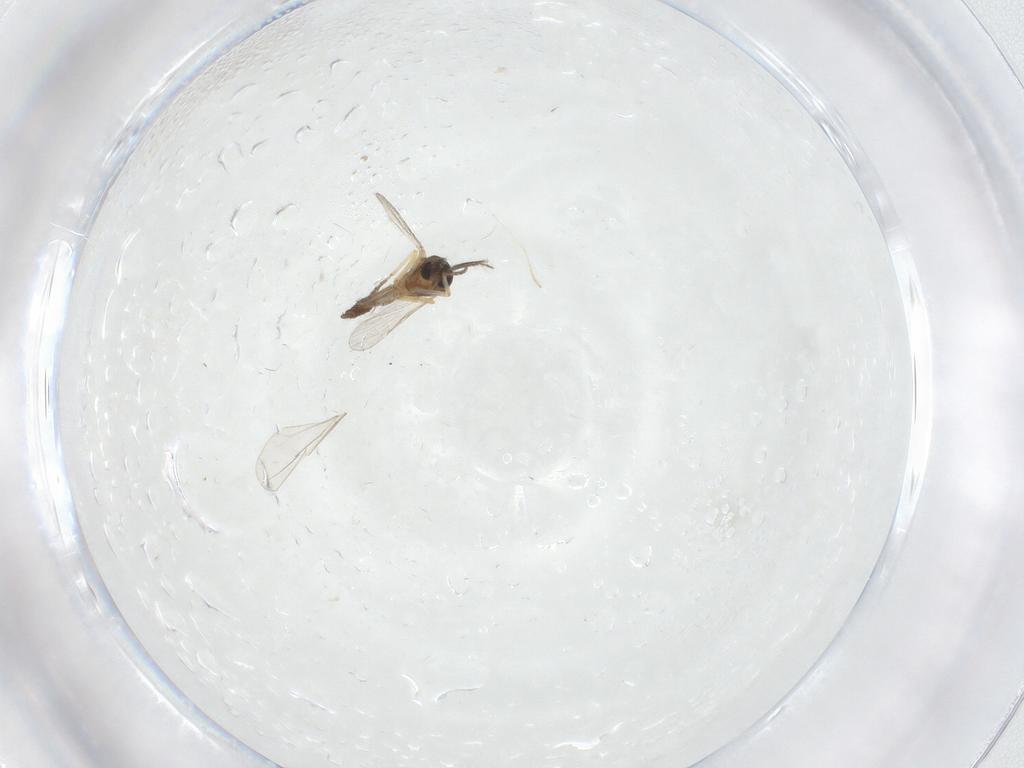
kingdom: Animalia
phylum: Arthropoda
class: Insecta
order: Diptera
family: Ceratopogonidae
